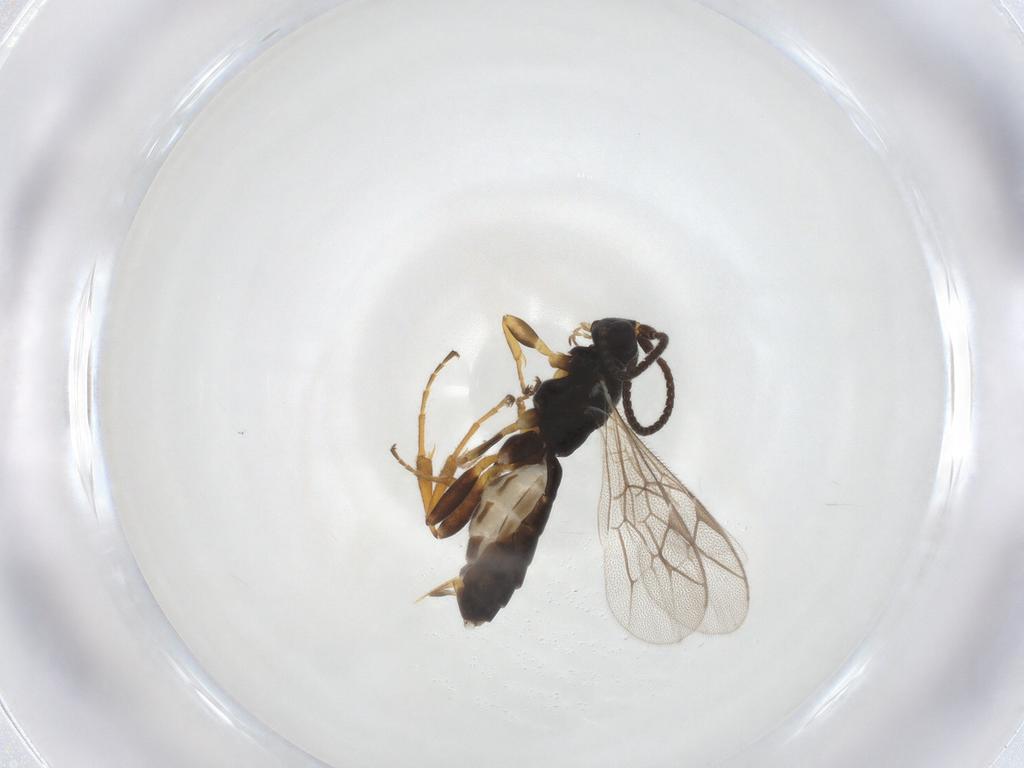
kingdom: Animalia
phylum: Arthropoda
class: Insecta
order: Hymenoptera
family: Ichneumonidae
